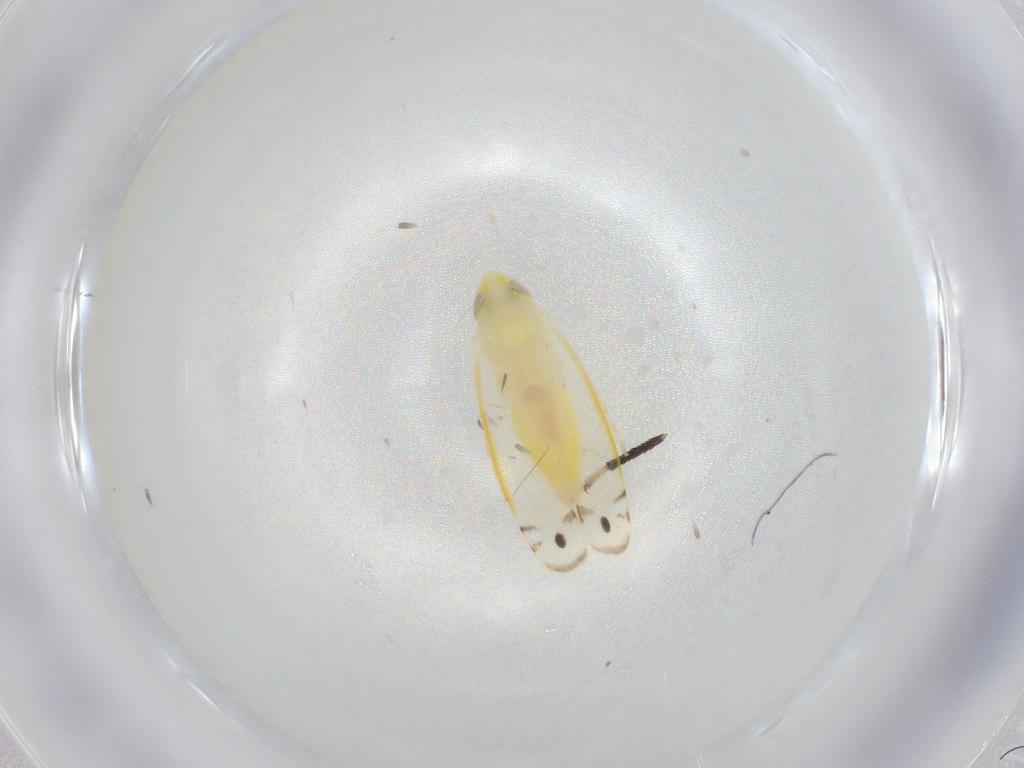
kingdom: Animalia
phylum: Arthropoda
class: Insecta
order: Hemiptera
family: Cicadellidae
